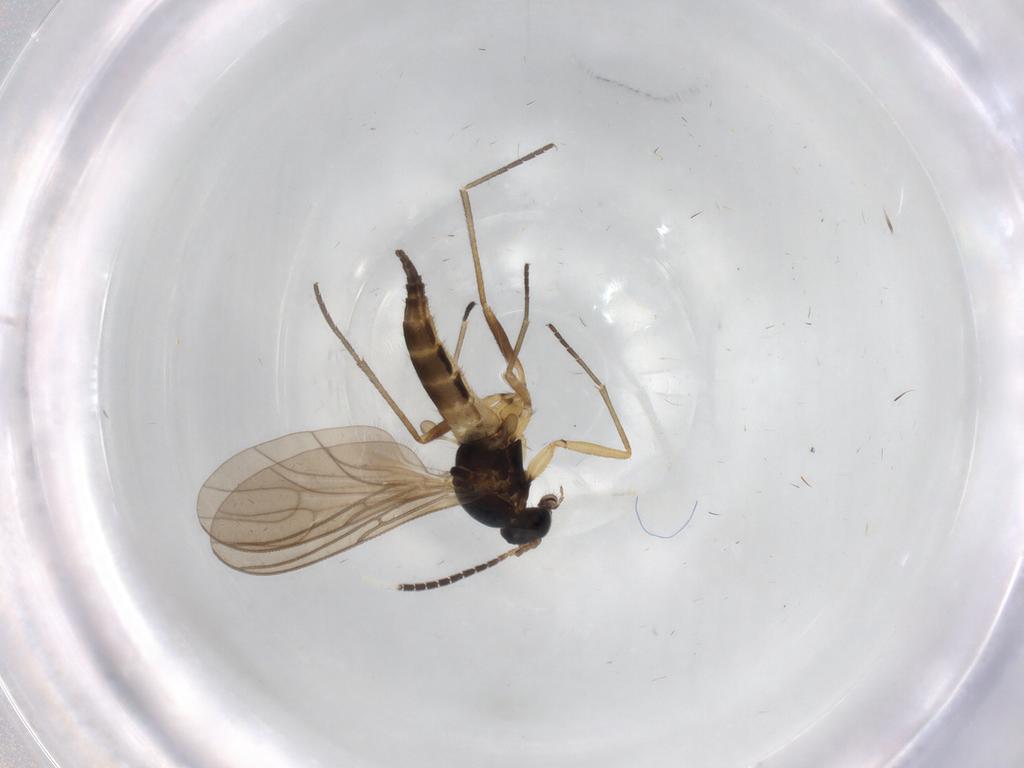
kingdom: Animalia
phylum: Arthropoda
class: Insecta
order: Diptera
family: Sciaridae
